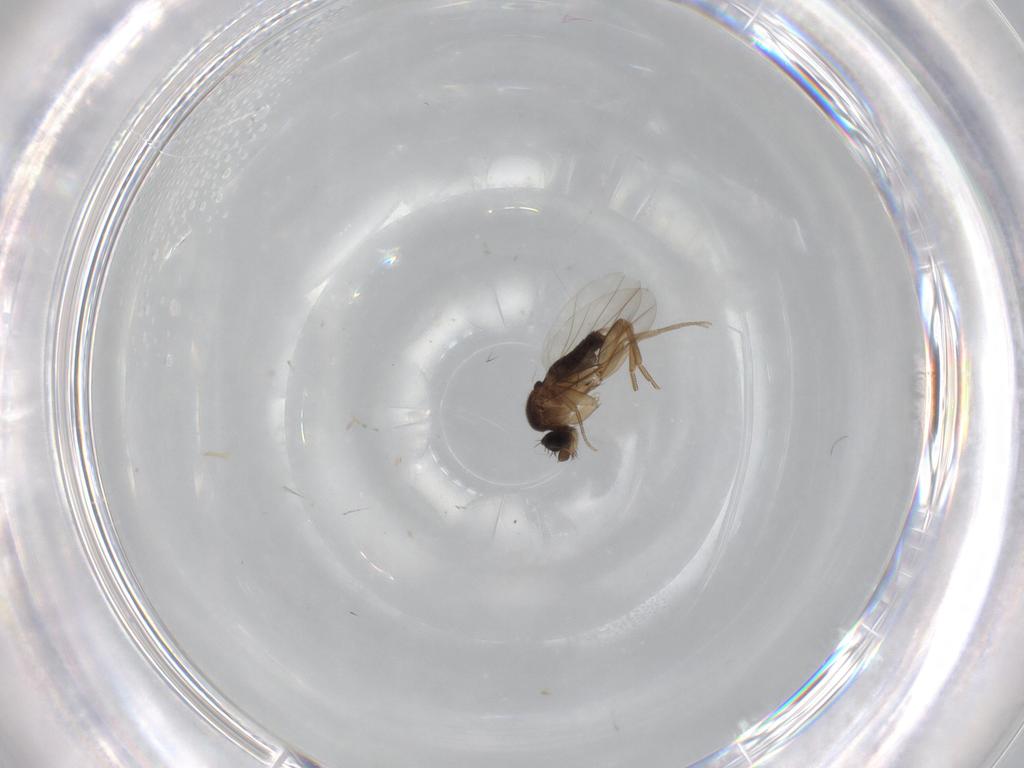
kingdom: Animalia
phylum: Arthropoda
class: Insecta
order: Diptera
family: Phoridae
